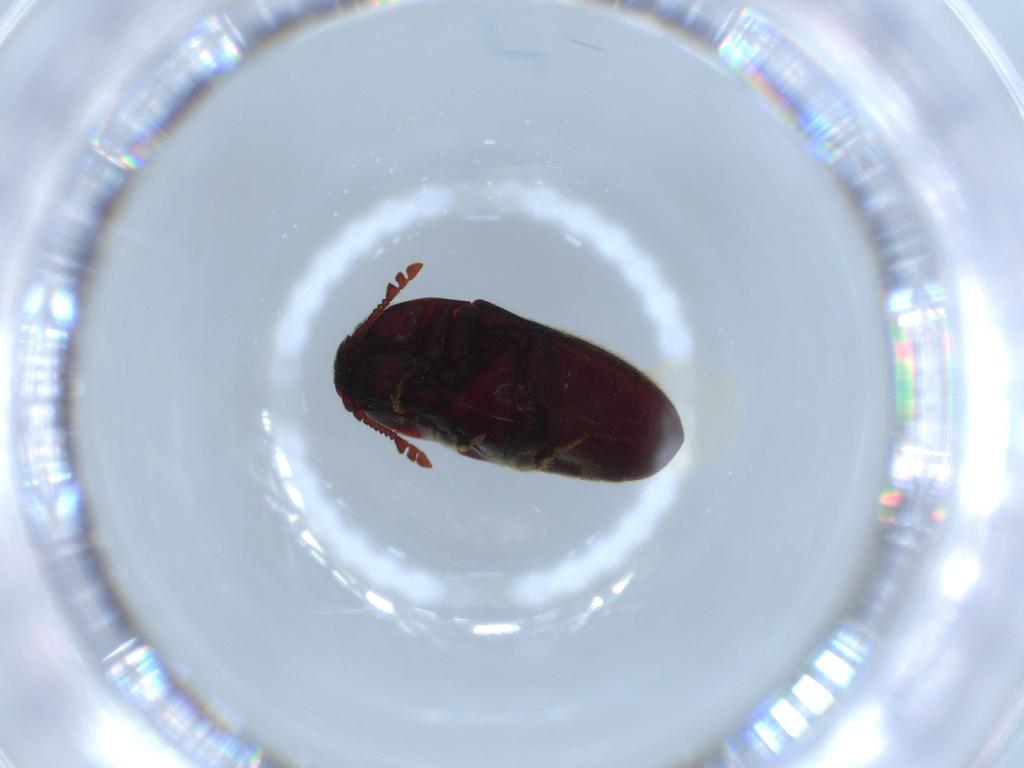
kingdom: Animalia
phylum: Arthropoda
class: Insecta
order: Coleoptera
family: Throscidae
